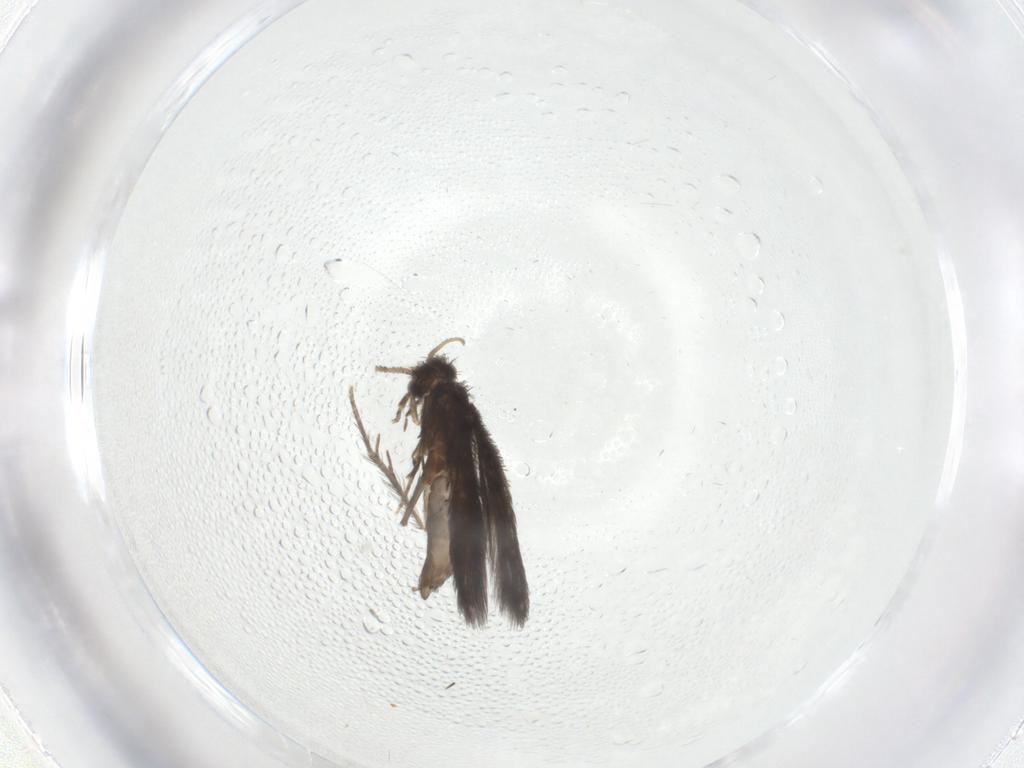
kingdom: Animalia
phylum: Arthropoda
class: Insecta
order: Trichoptera
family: Hydroptilidae
